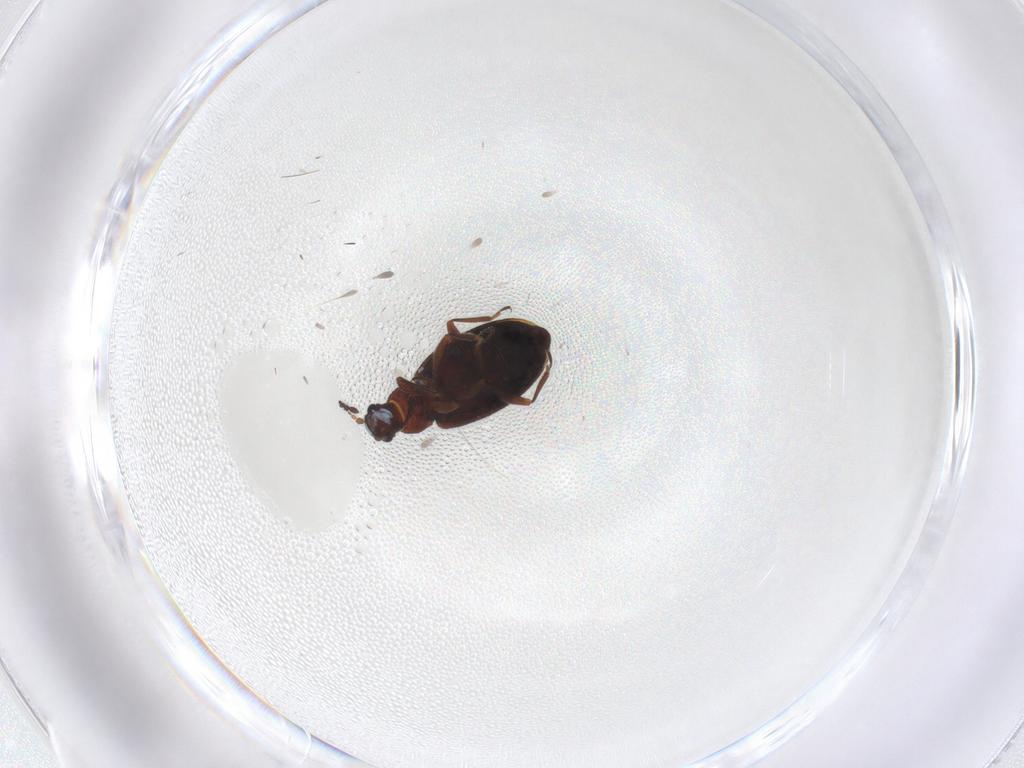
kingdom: Animalia
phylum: Arthropoda
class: Insecta
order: Coleoptera
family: Latridiidae
